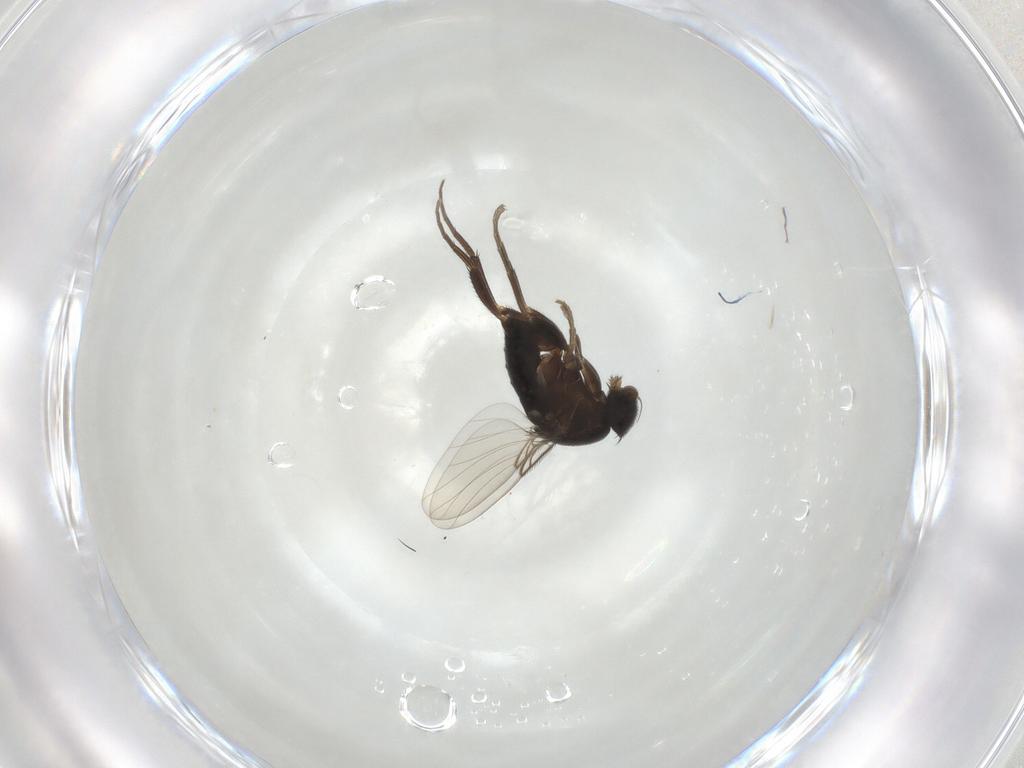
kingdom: Animalia
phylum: Arthropoda
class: Insecta
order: Diptera
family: Phoridae
